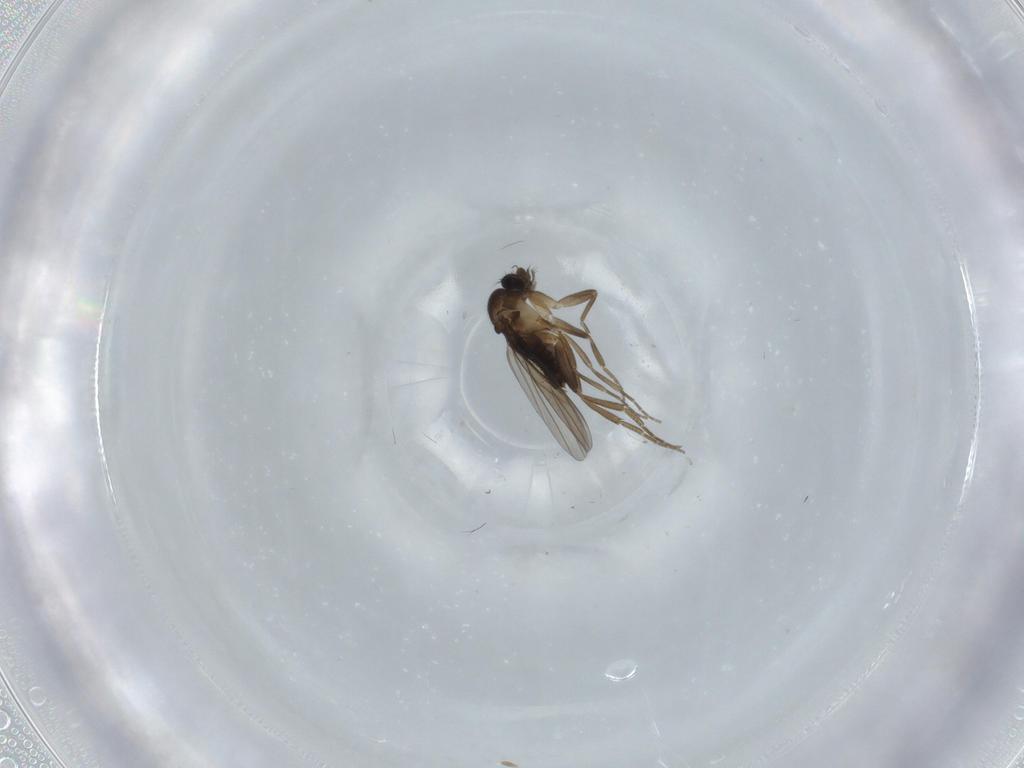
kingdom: Animalia
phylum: Arthropoda
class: Insecta
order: Diptera
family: Phoridae
